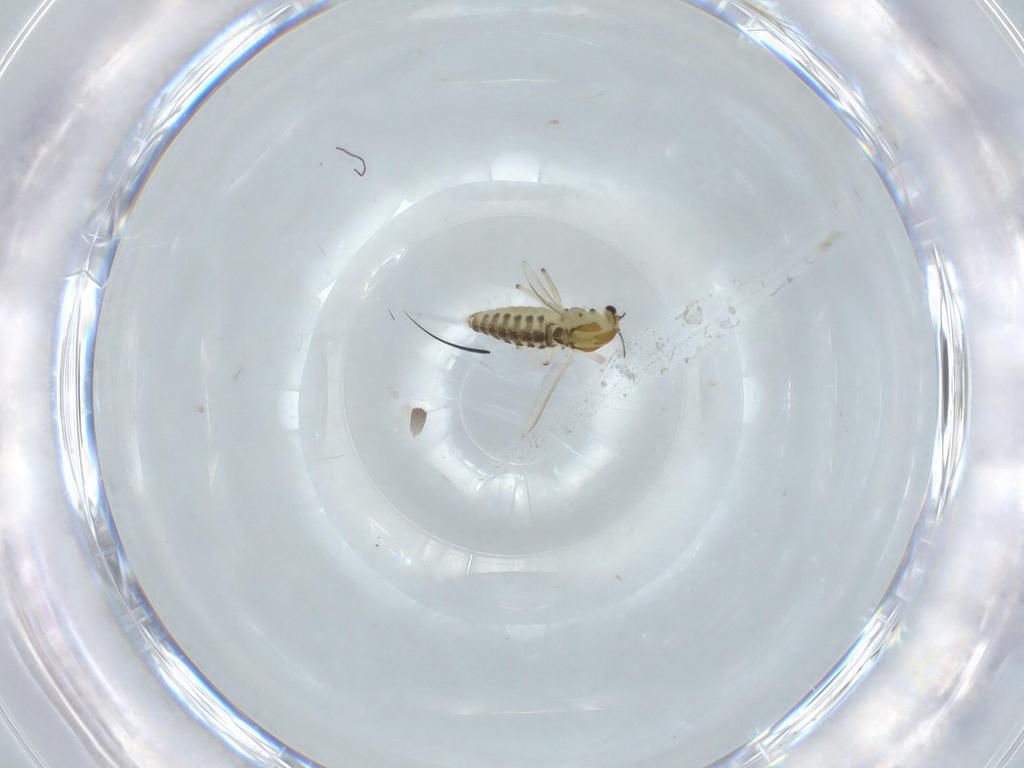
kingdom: Animalia
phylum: Arthropoda
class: Insecta
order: Diptera
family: Chironomidae
